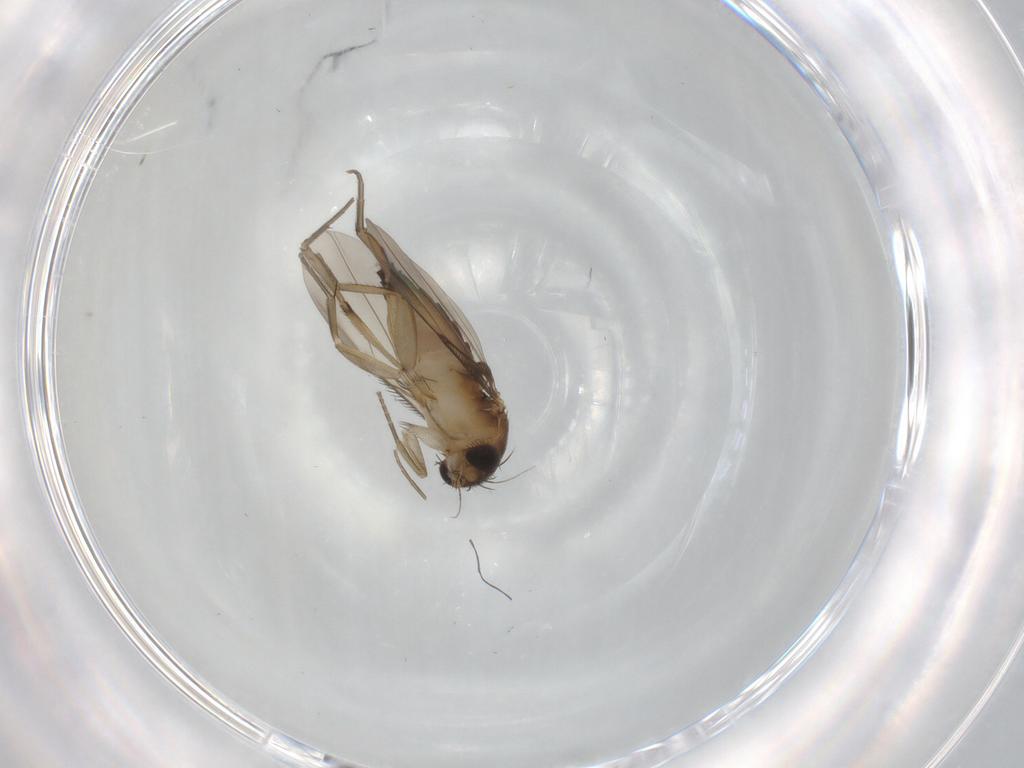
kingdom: Animalia
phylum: Arthropoda
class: Insecta
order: Diptera
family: Phoridae
